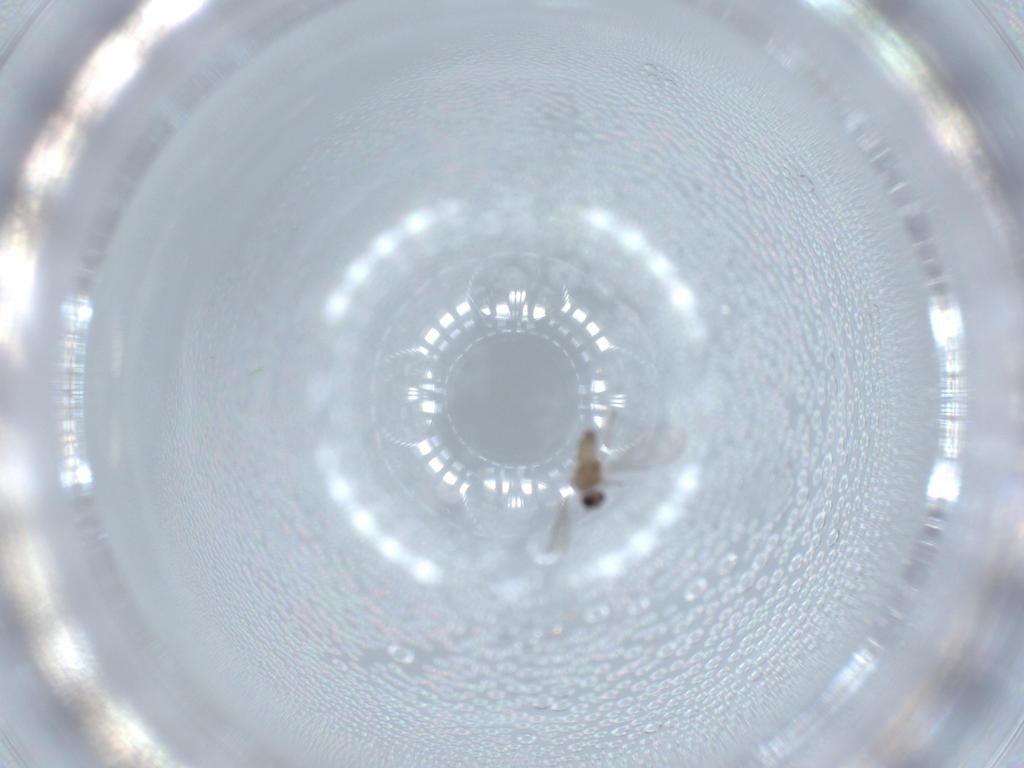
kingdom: Animalia
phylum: Arthropoda
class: Insecta
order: Diptera
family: Cecidomyiidae
